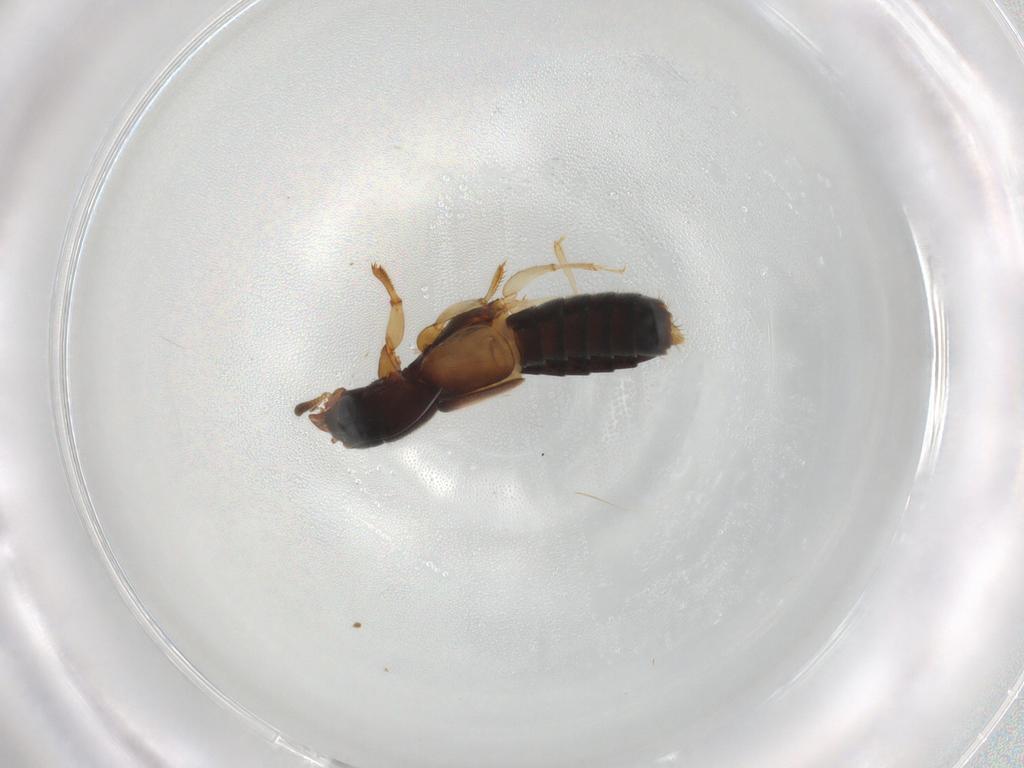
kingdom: Animalia
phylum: Arthropoda
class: Insecta
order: Coleoptera
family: Staphylinidae
